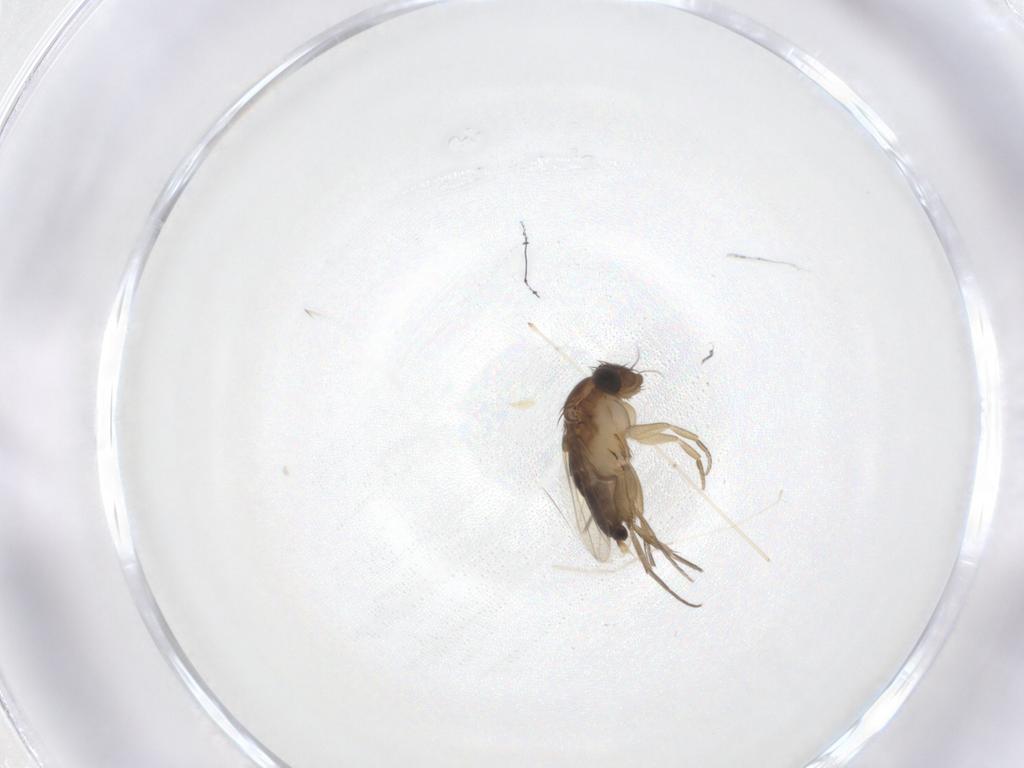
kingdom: Animalia
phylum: Arthropoda
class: Insecta
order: Diptera
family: Phoridae
